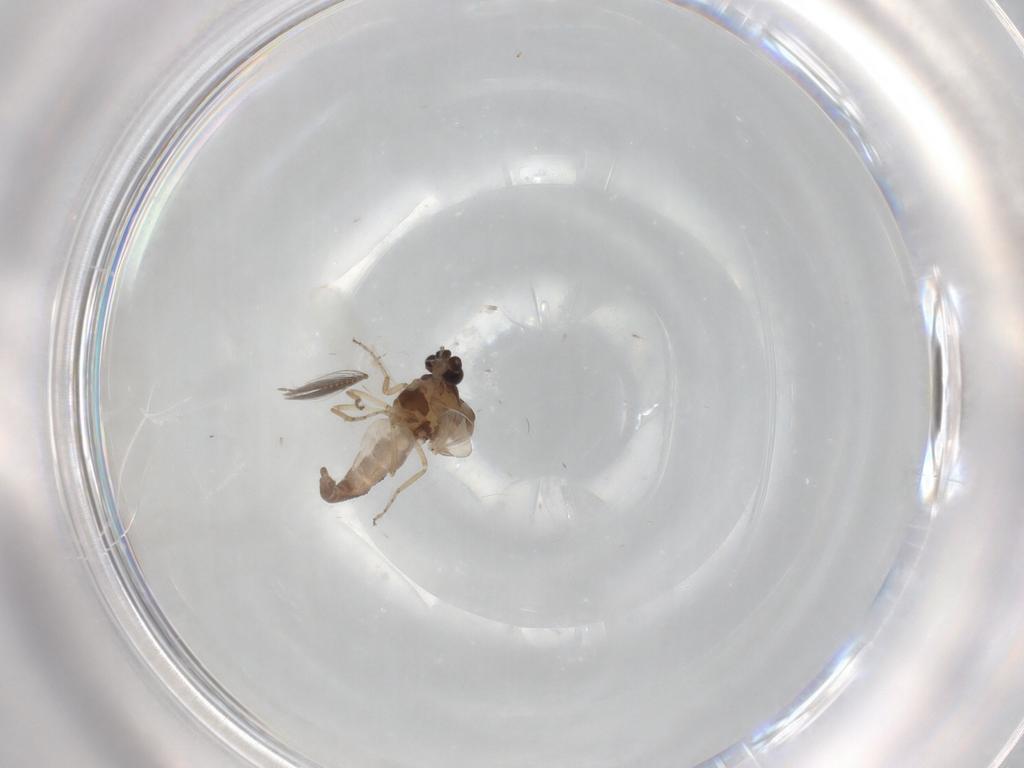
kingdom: Animalia
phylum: Arthropoda
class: Insecta
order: Diptera
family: Ceratopogonidae
